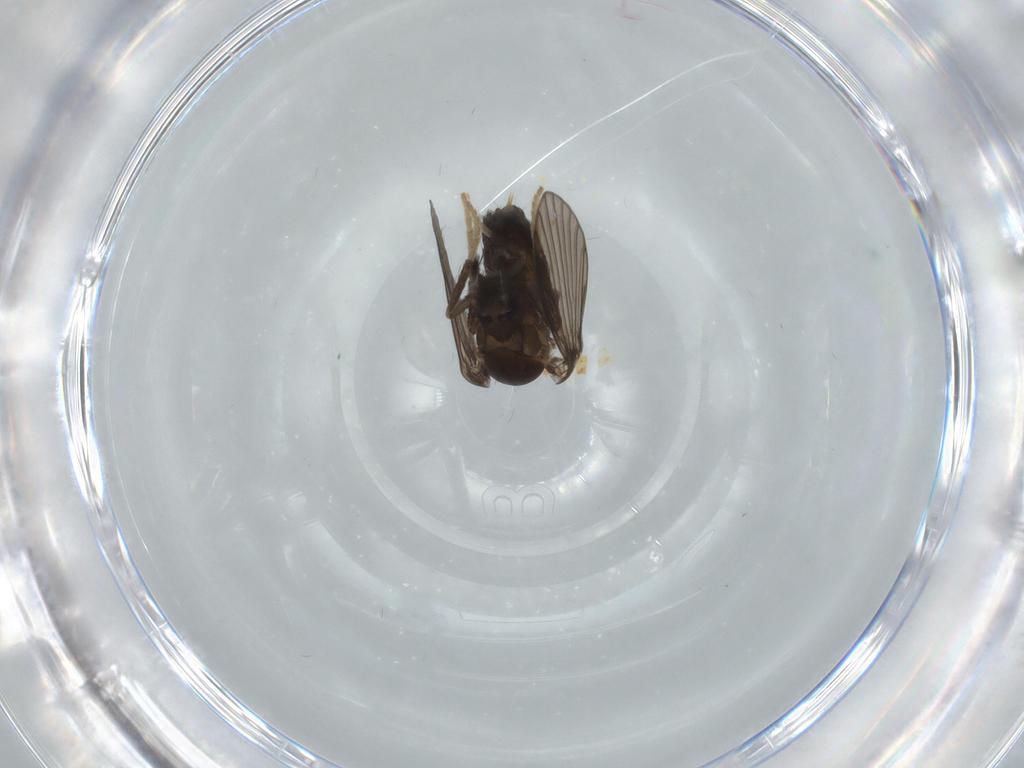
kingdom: Animalia
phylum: Arthropoda
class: Insecta
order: Diptera
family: Psychodidae
